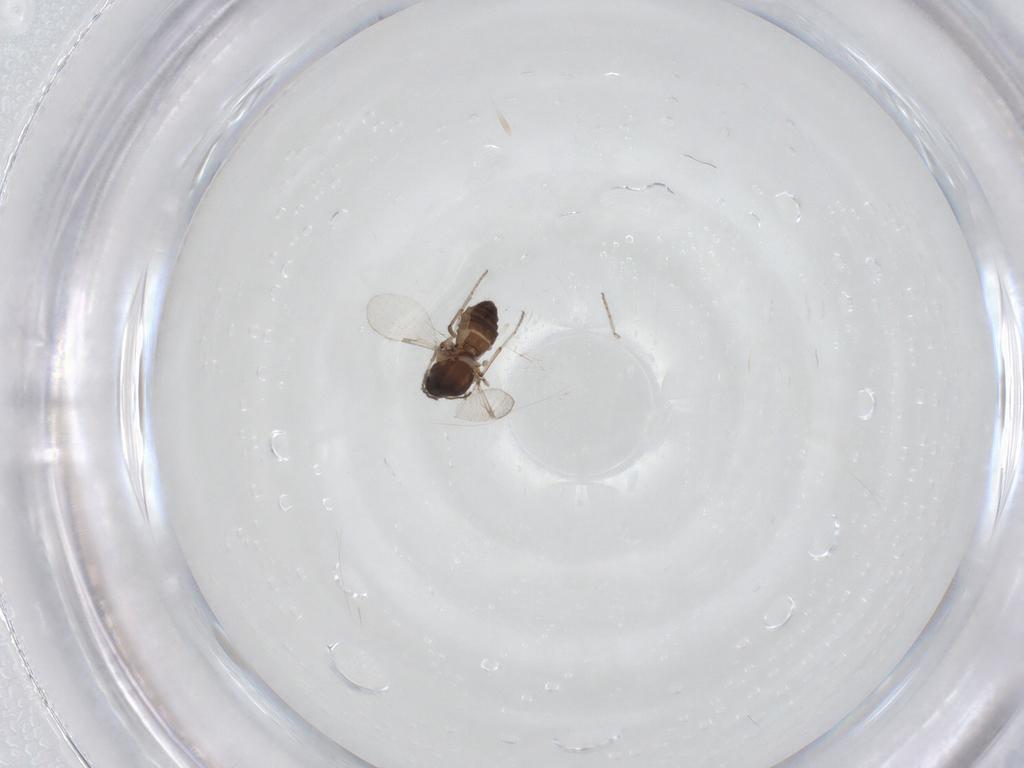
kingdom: Animalia
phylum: Arthropoda
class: Insecta
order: Diptera
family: Ceratopogonidae
